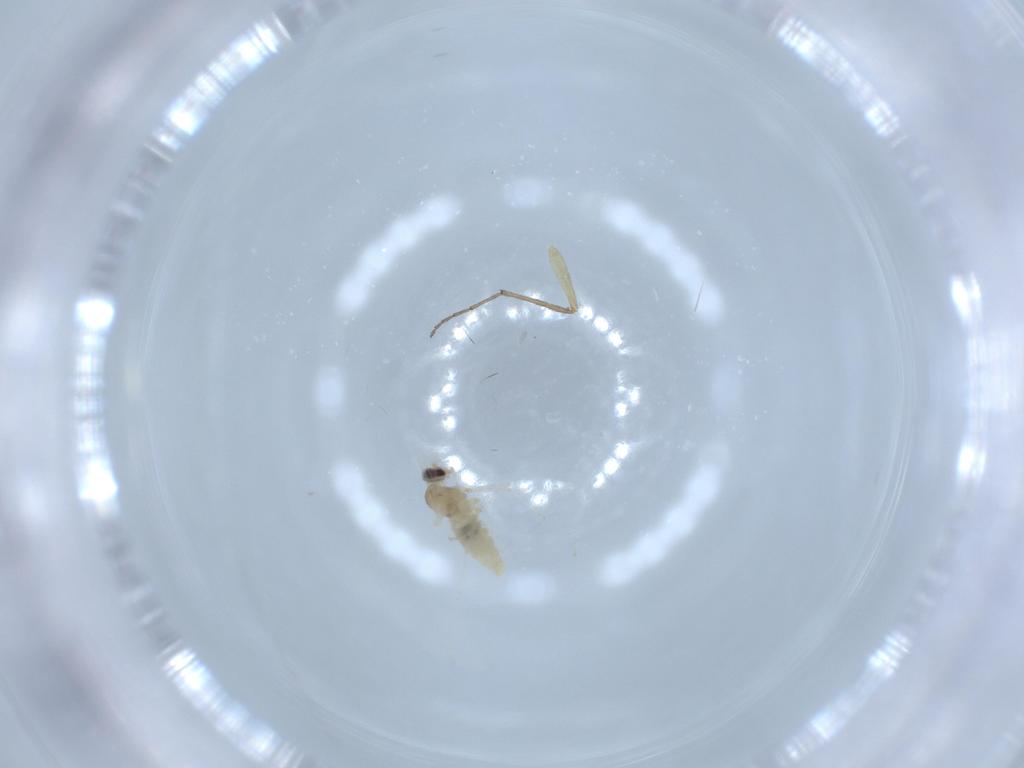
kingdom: Animalia
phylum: Arthropoda
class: Insecta
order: Diptera
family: Chironomidae
